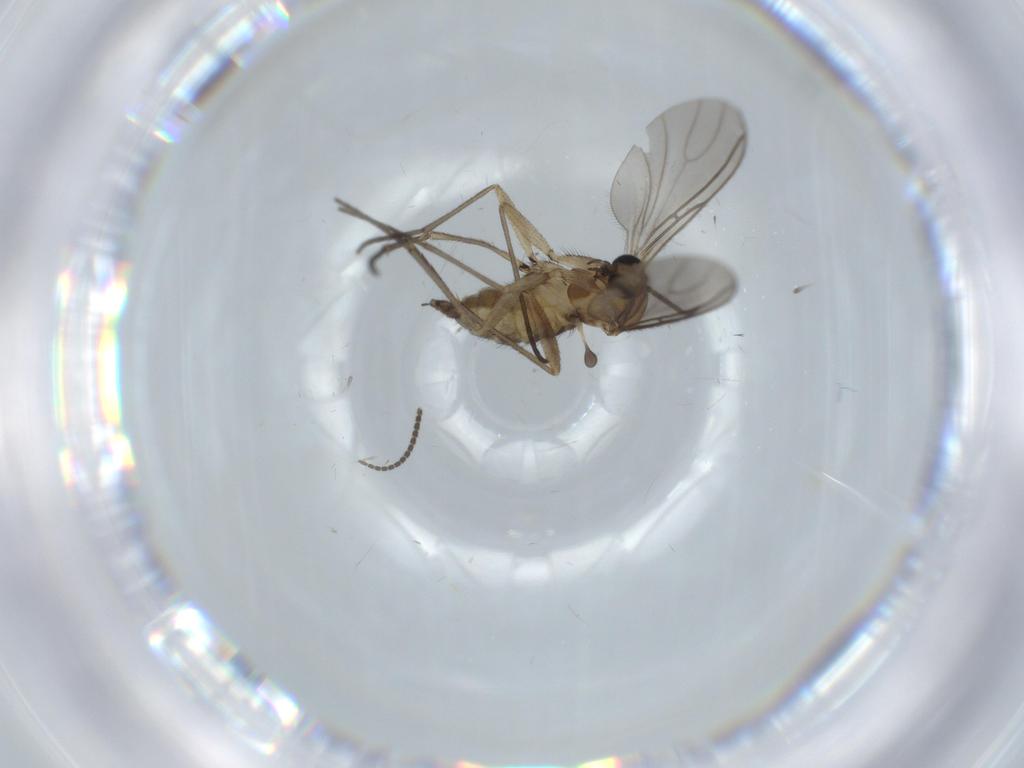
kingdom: Animalia
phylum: Arthropoda
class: Insecta
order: Diptera
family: Sciaridae
